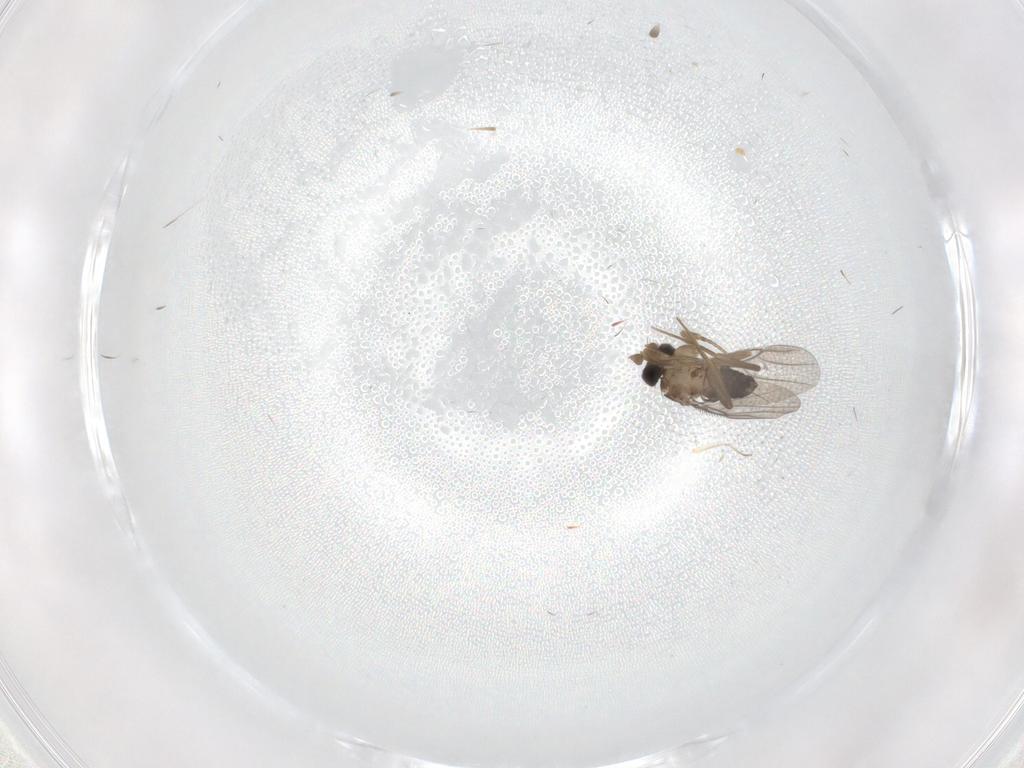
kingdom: Animalia
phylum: Arthropoda
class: Insecta
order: Diptera
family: Phoridae
